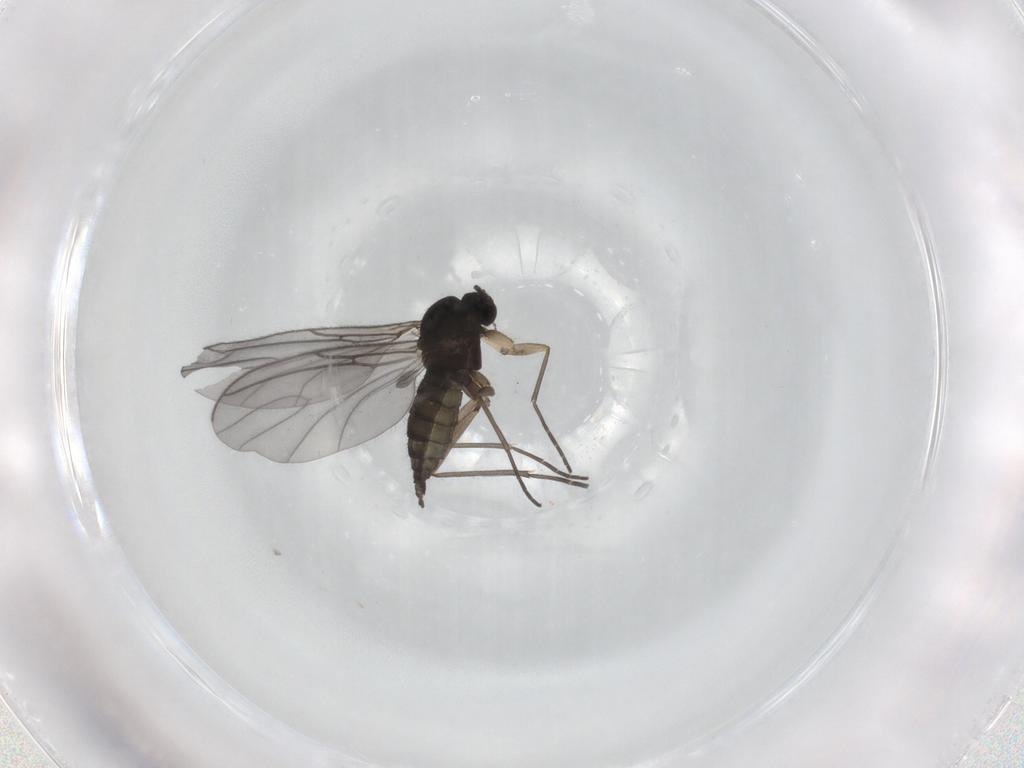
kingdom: Animalia
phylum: Arthropoda
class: Insecta
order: Diptera
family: Sciaridae
